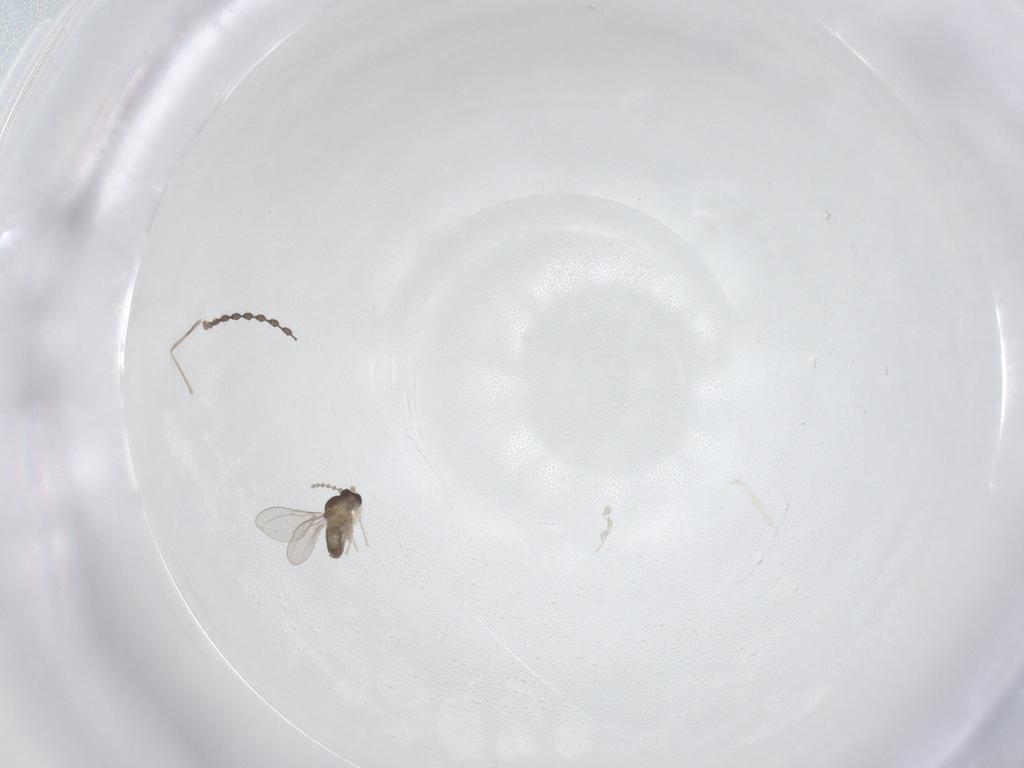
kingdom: Animalia
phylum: Arthropoda
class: Insecta
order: Diptera
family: Cecidomyiidae
